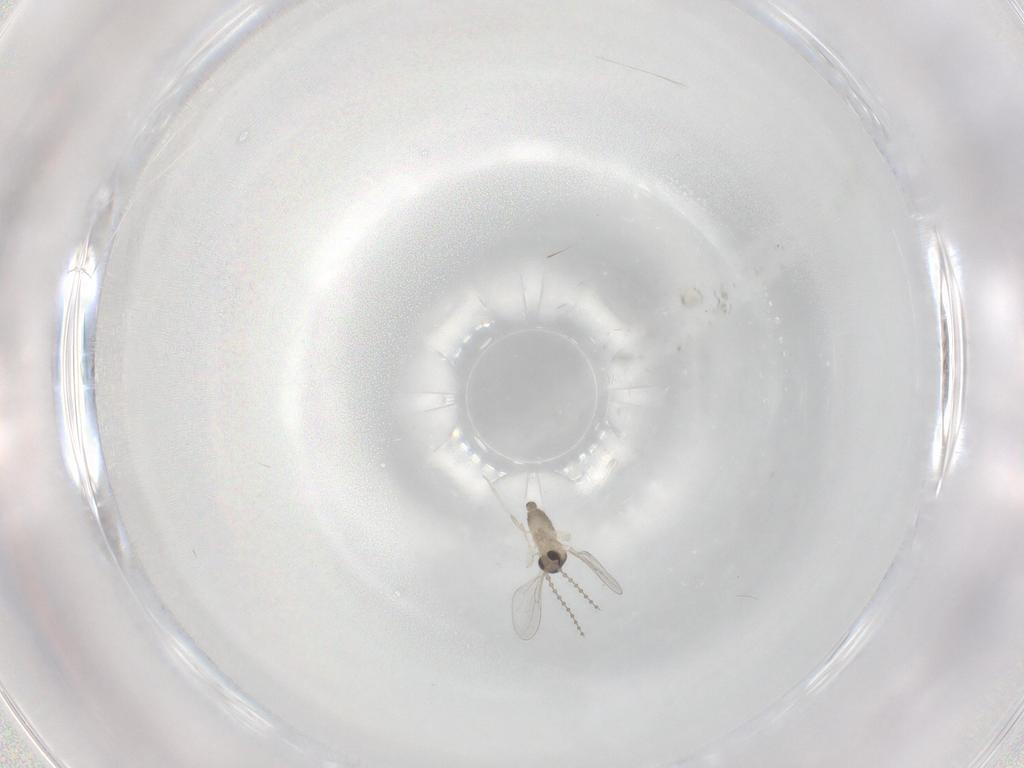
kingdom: Animalia
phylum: Arthropoda
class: Insecta
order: Diptera
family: Cecidomyiidae
